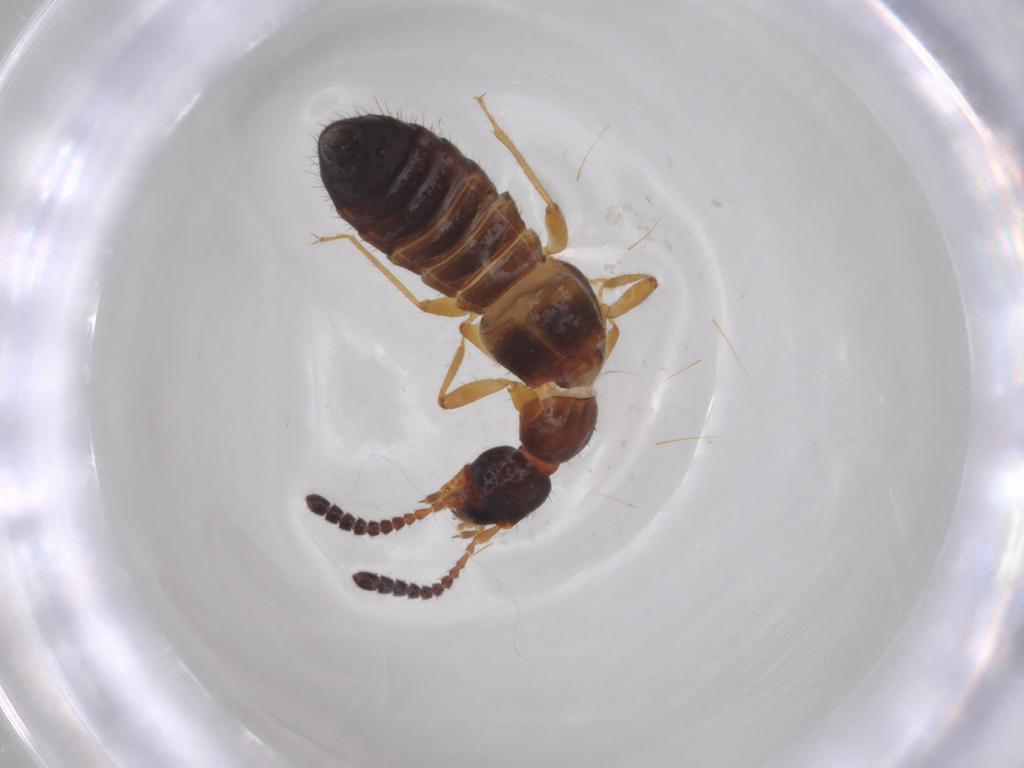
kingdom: Animalia
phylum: Arthropoda
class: Insecta
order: Coleoptera
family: Staphylinidae
